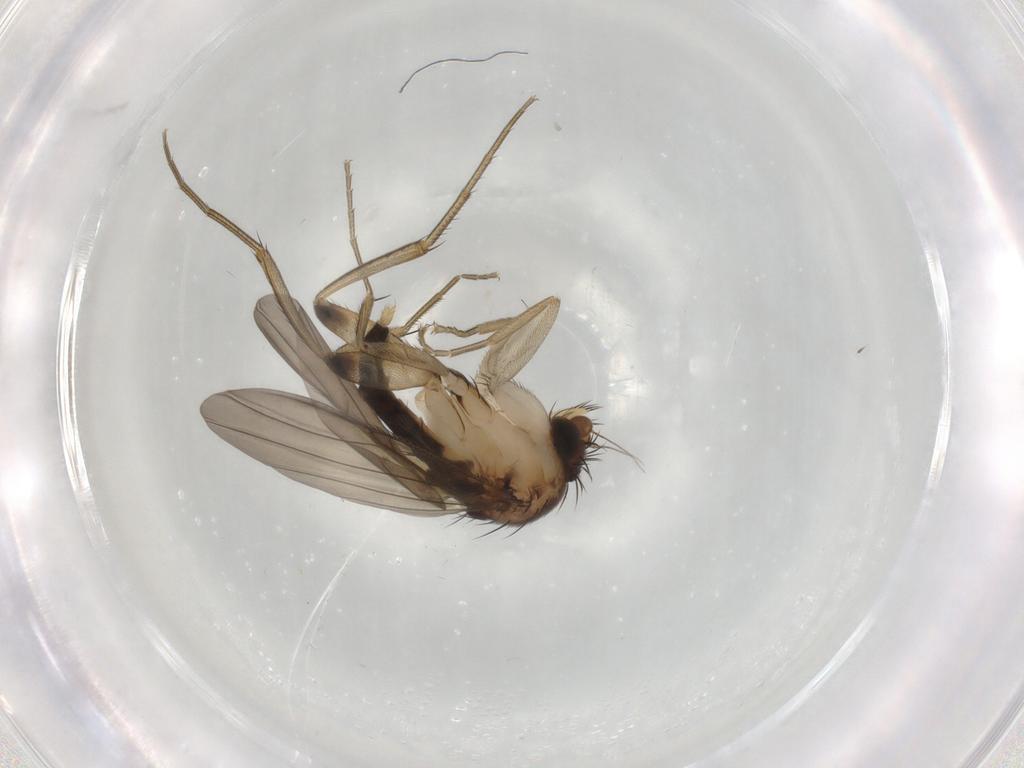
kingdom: Animalia
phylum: Arthropoda
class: Insecta
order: Diptera
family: Phoridae
